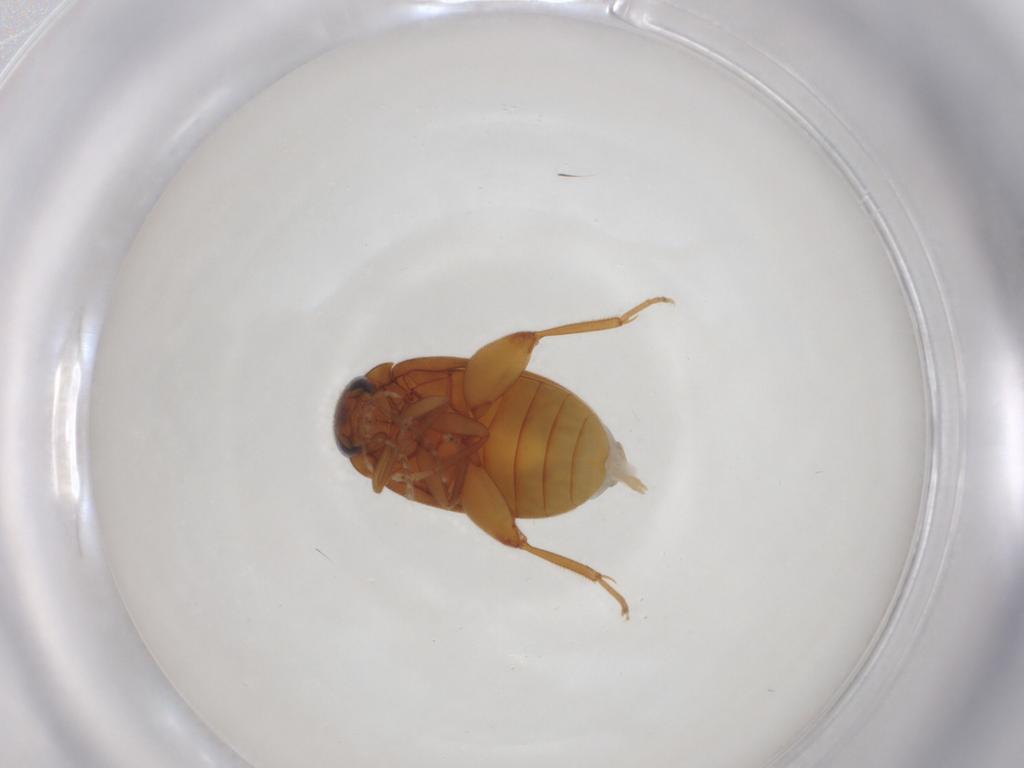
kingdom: Animalia
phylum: Arthropoda
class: Insecta
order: Coleoptera
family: Scirtidae
